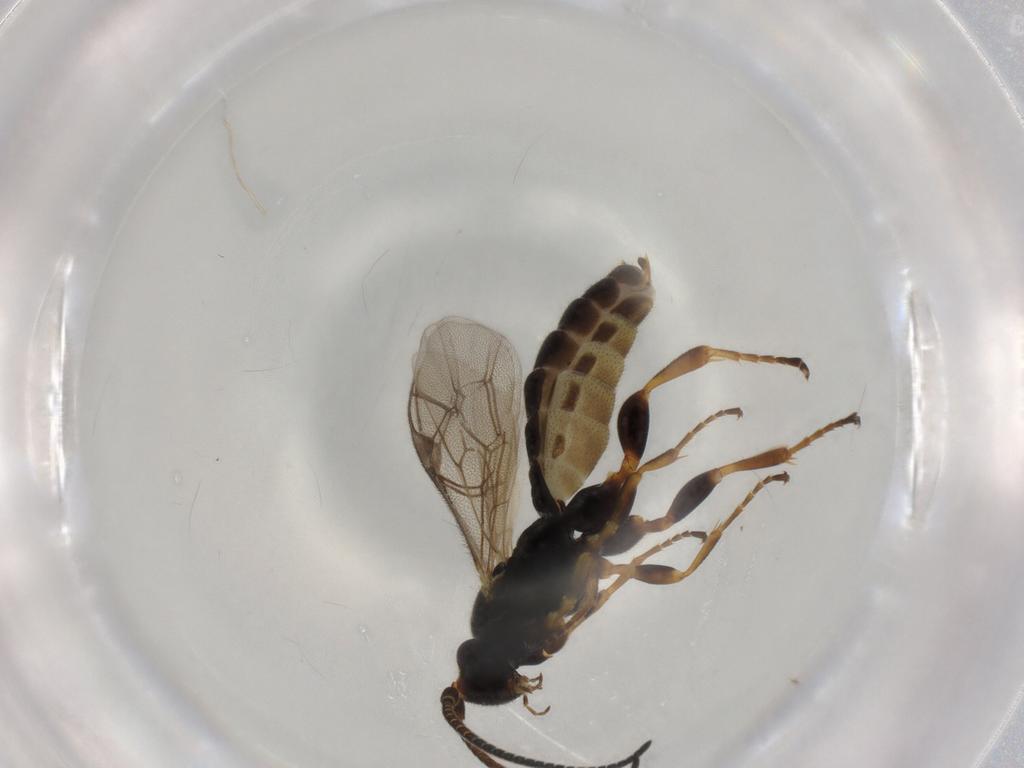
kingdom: Animalia
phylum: Arthropoda
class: Insecta
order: Hymenoptera
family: Ichneumonidae
